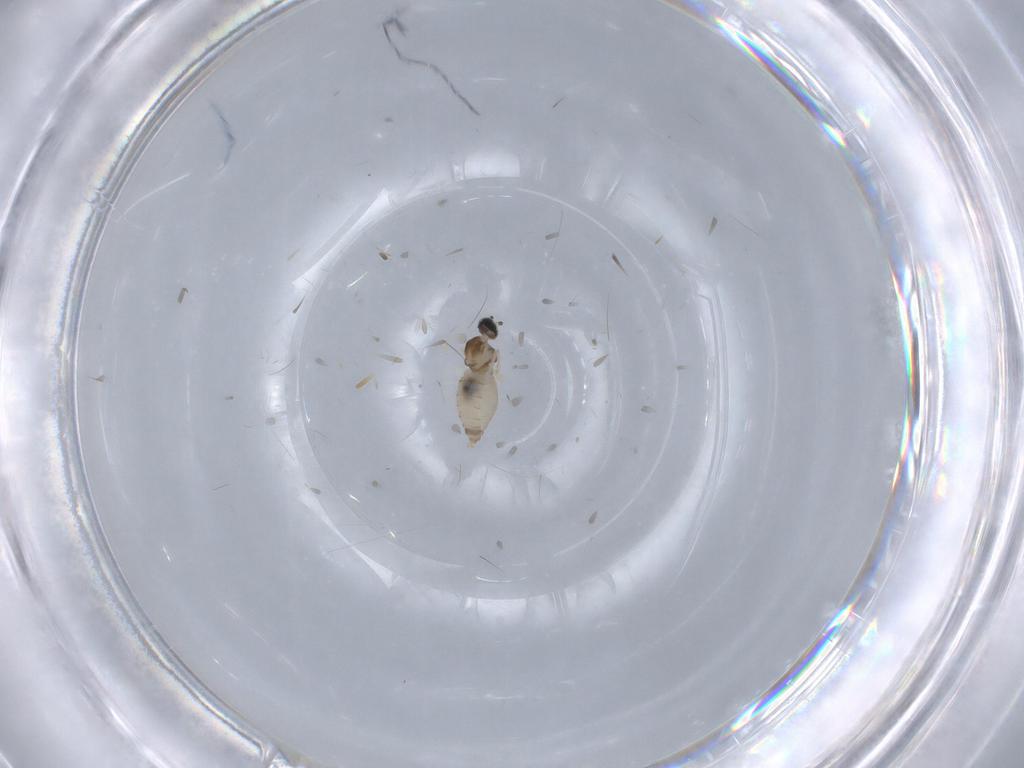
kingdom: Animalia
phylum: Arthropoda
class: Insecta
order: Diptera
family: Cecidomyiidae
